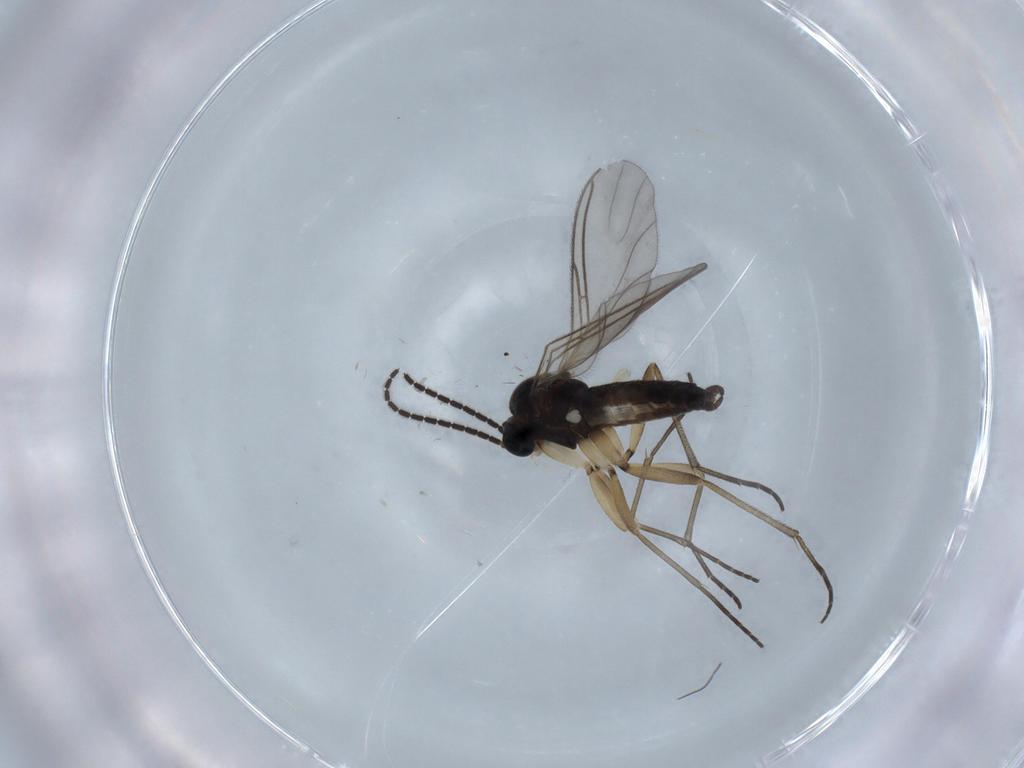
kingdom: Animalia
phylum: Arthropoda
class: Insecta
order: Diptera
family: Sciaridae
